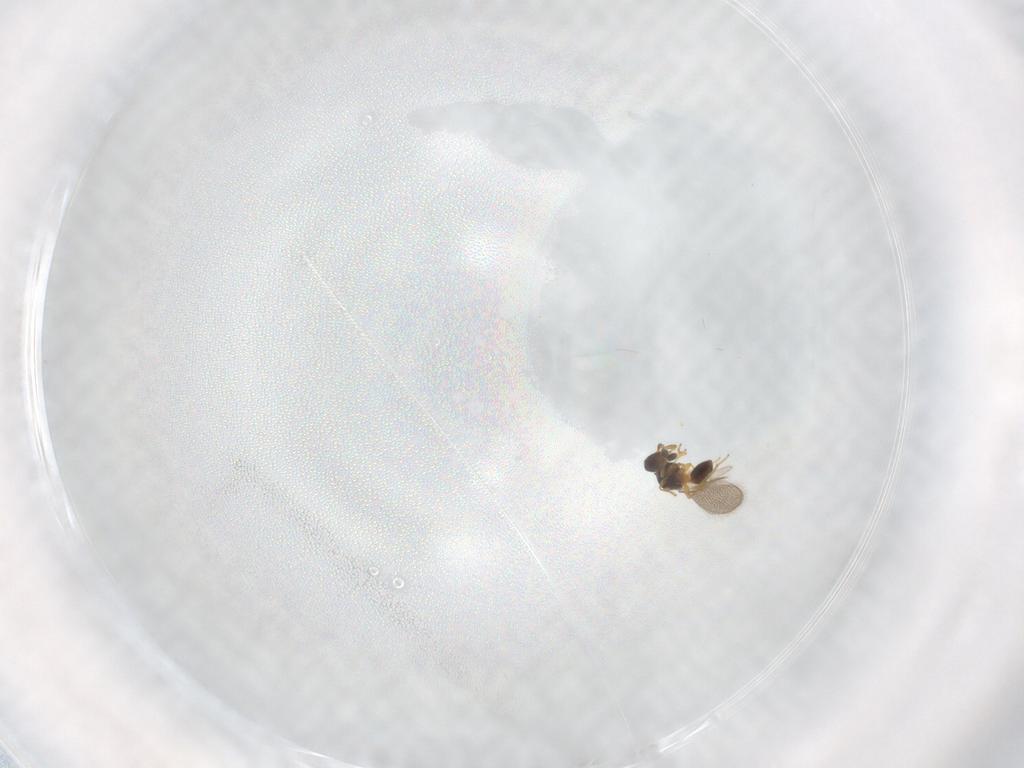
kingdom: Animalia
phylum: Arthropoda
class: Insecta
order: Hymenoptera
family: Platygastridae
